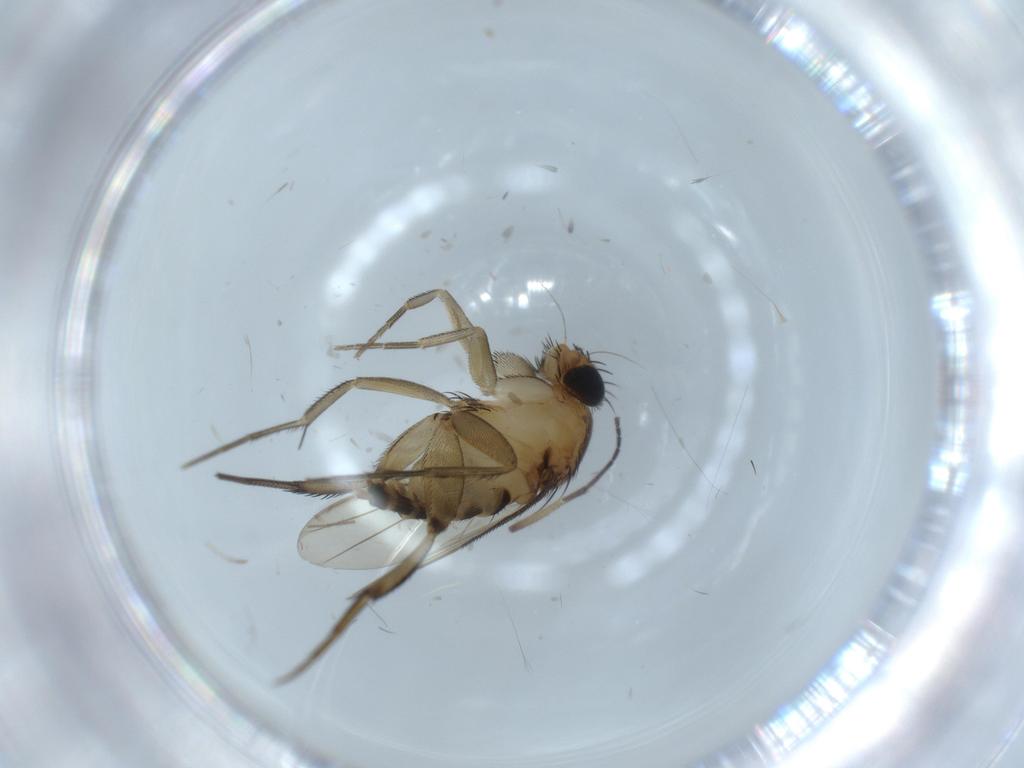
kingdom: Animalia
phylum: Arthropoda
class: Insecta
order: Diptera
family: Phoridae
